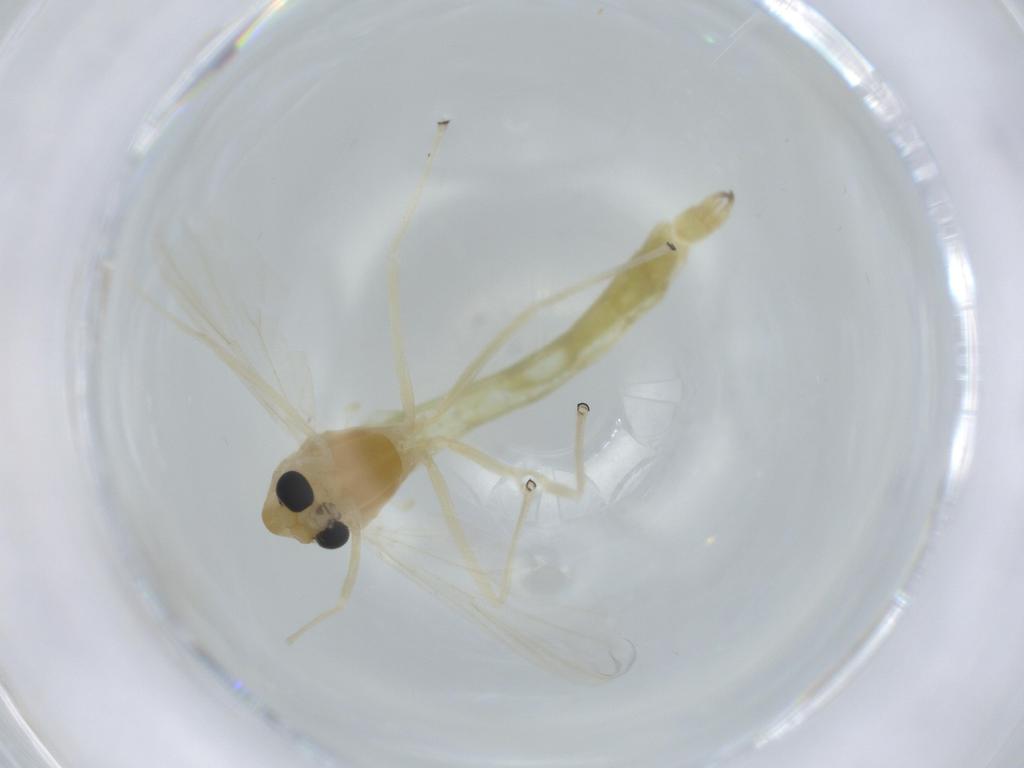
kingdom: Animalia
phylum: Arthropoda
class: Insecta
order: Diptera
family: Chironomidae
